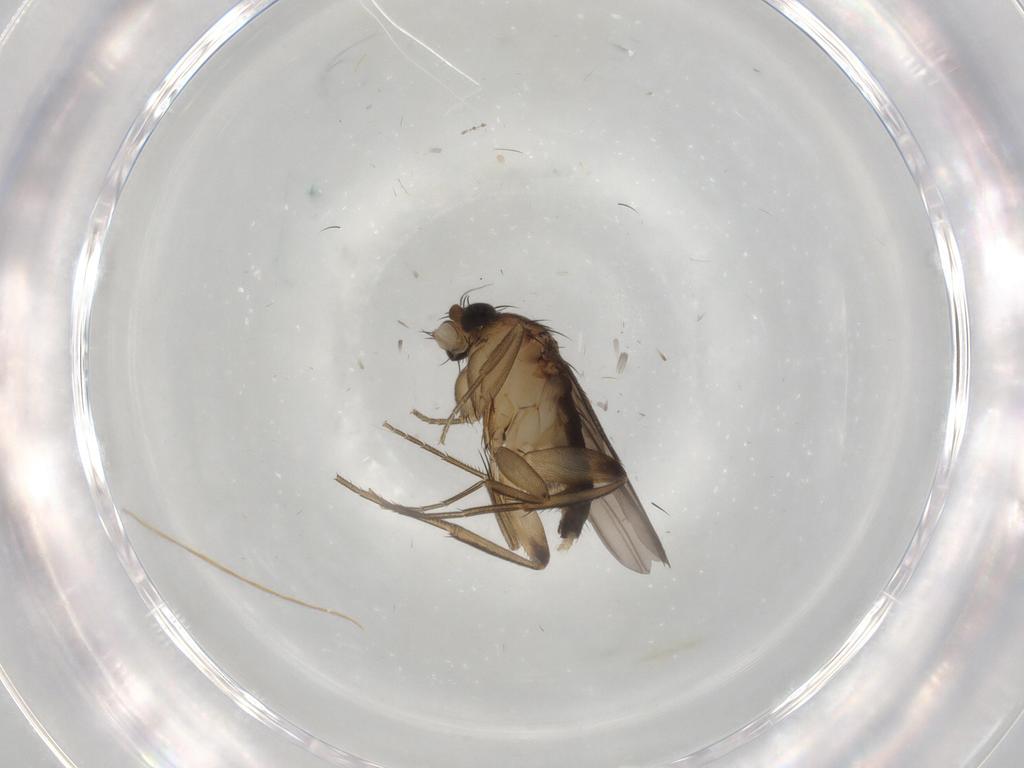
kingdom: Animalia
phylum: Arthropoda
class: Insecta
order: Diptera
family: Phoridae
